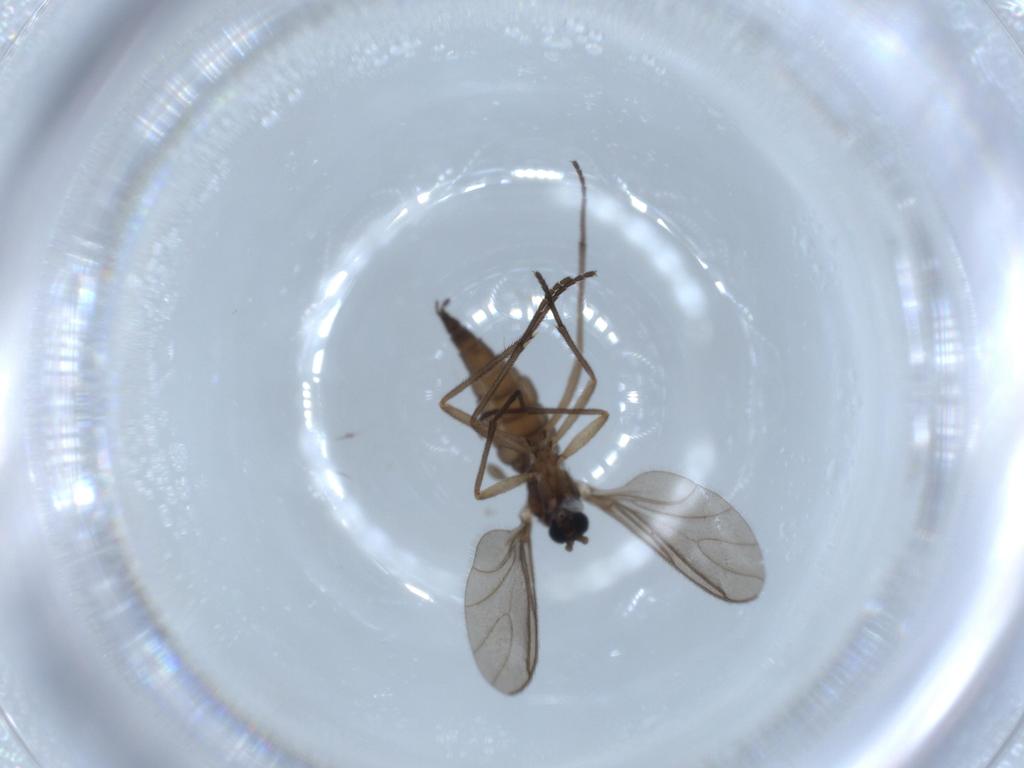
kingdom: Animalia
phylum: Arthropoda
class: Insecta
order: Diptera
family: Sciaridae
